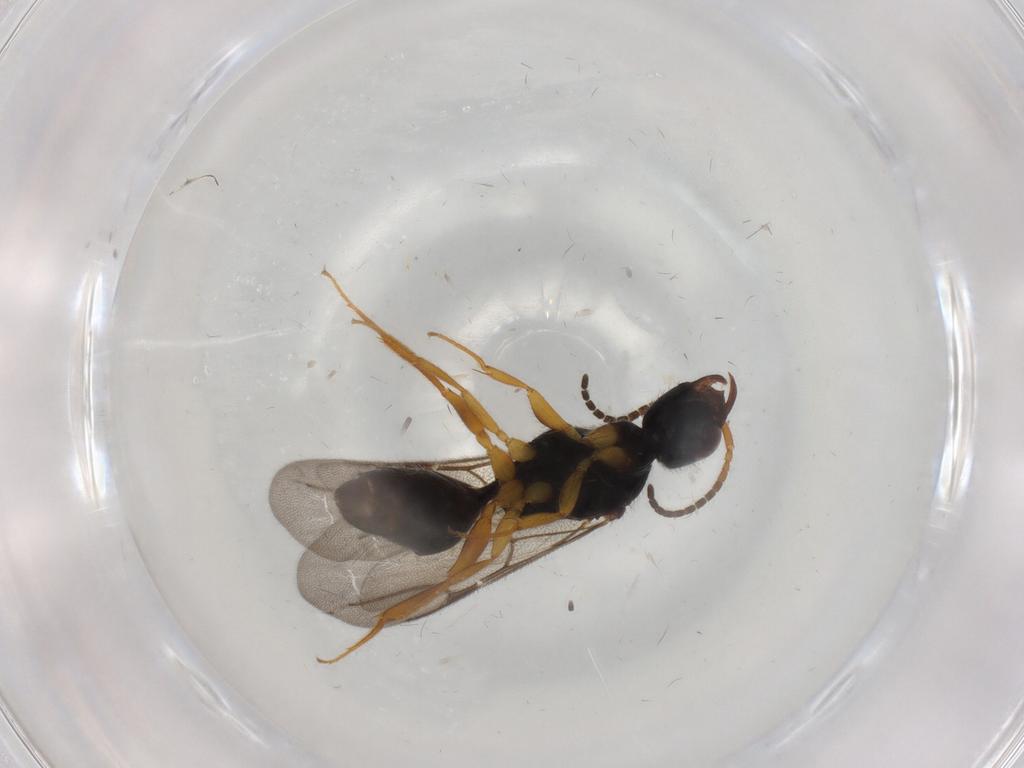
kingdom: Animalia
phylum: Arthropoda
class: Insecta
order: Hymenoptera
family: Bethylidae
